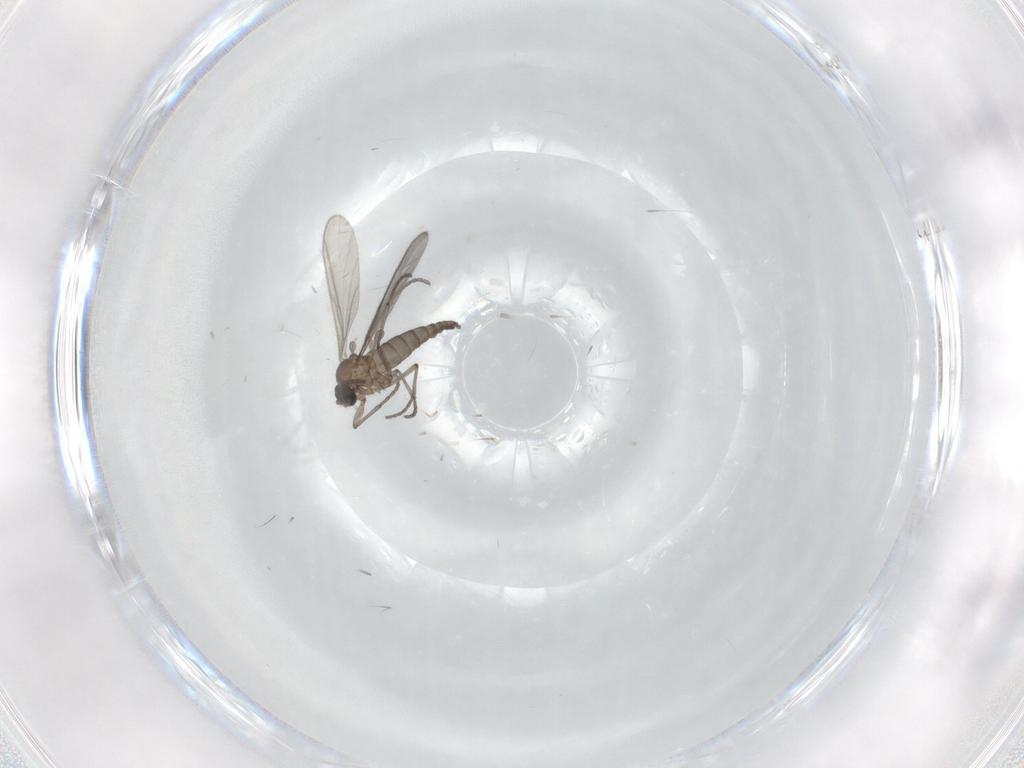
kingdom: Animalia
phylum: Arthropoda
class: Insecta
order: Diptera
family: Sciaridae
